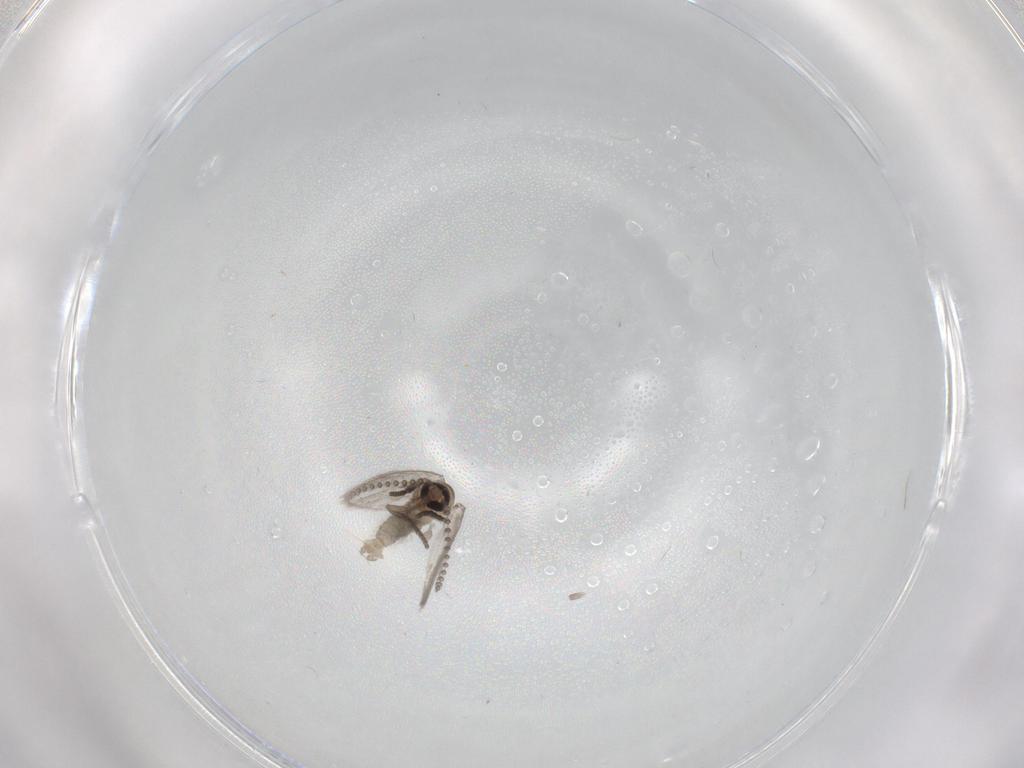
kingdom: Animalia
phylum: Arthropoda
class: Insecta
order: Diptera
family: Psychodidae
